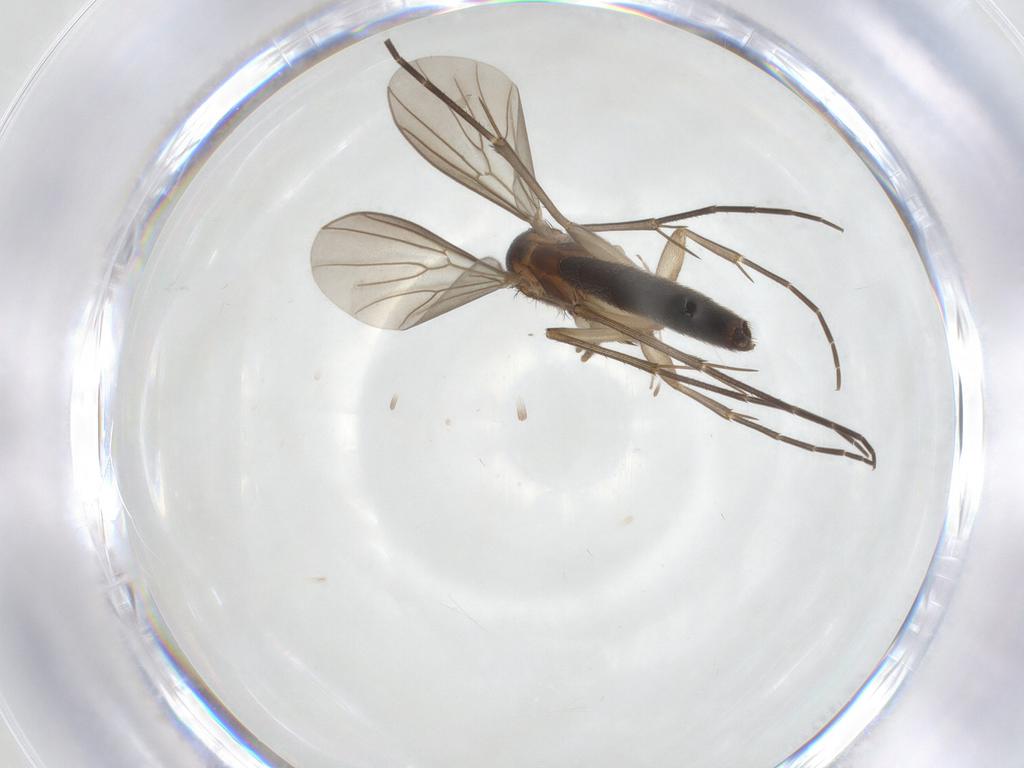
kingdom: Animalia
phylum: Arthropoda
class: Insecta
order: Diptera
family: Mycetophilidae
